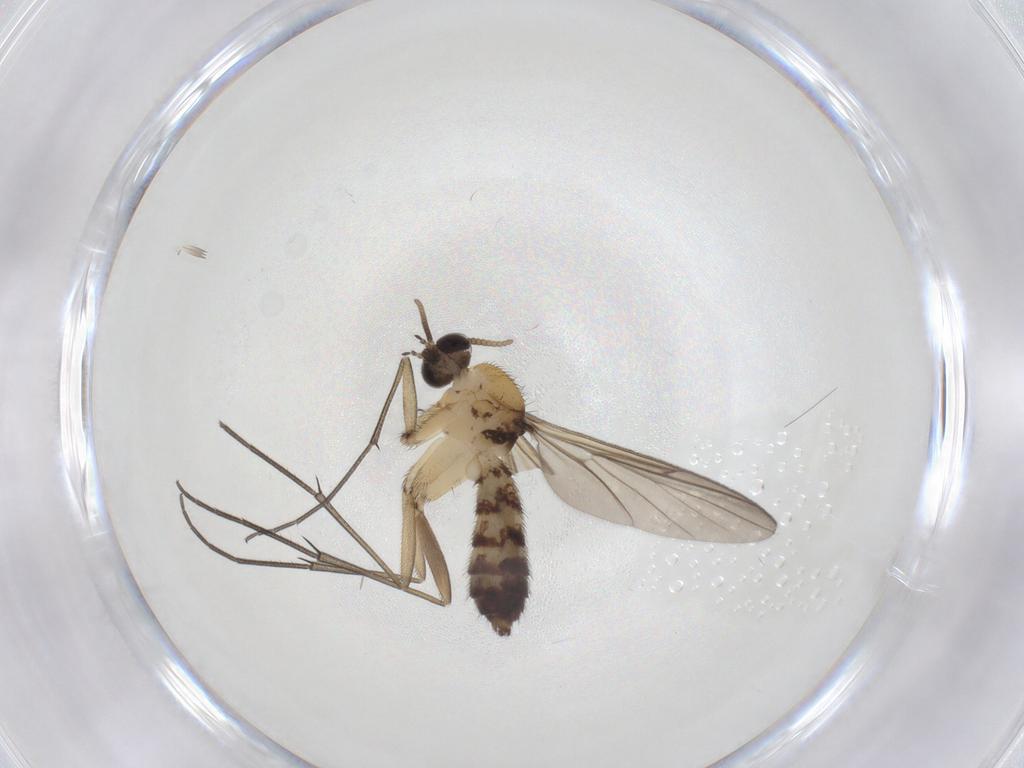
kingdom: Animalia
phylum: Arthropoda
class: Insecta
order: Diptera
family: Keroplatidae
